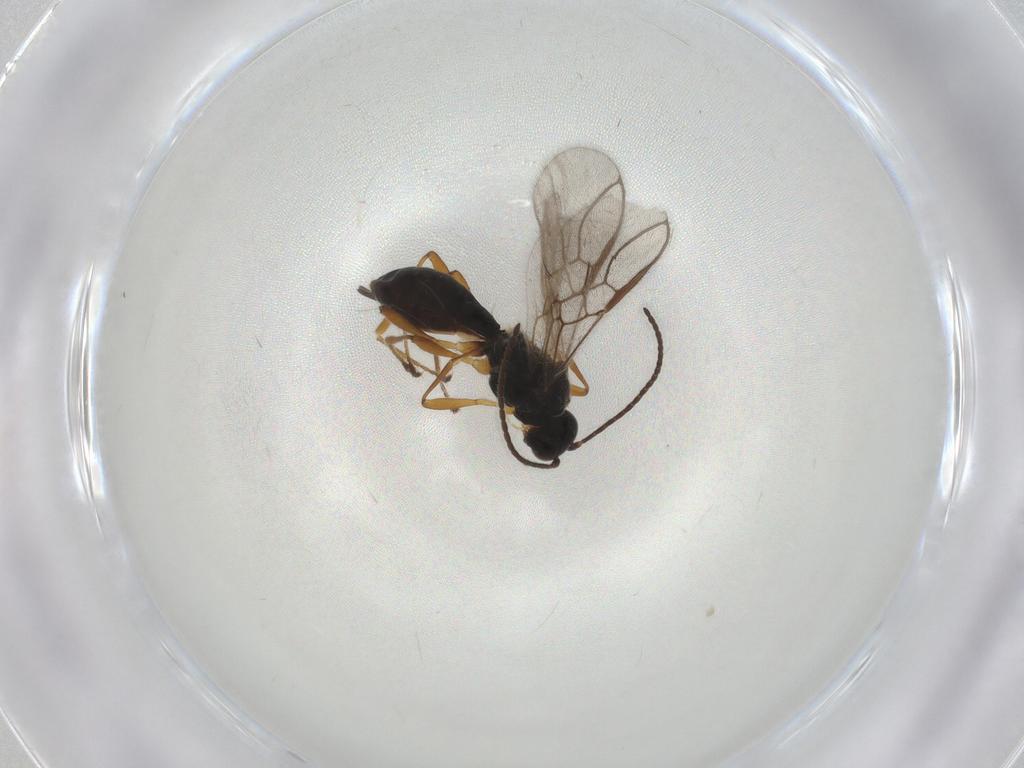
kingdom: Animalia
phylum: Arthropoda
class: Insecta
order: Hymenoptera
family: Braconidae
